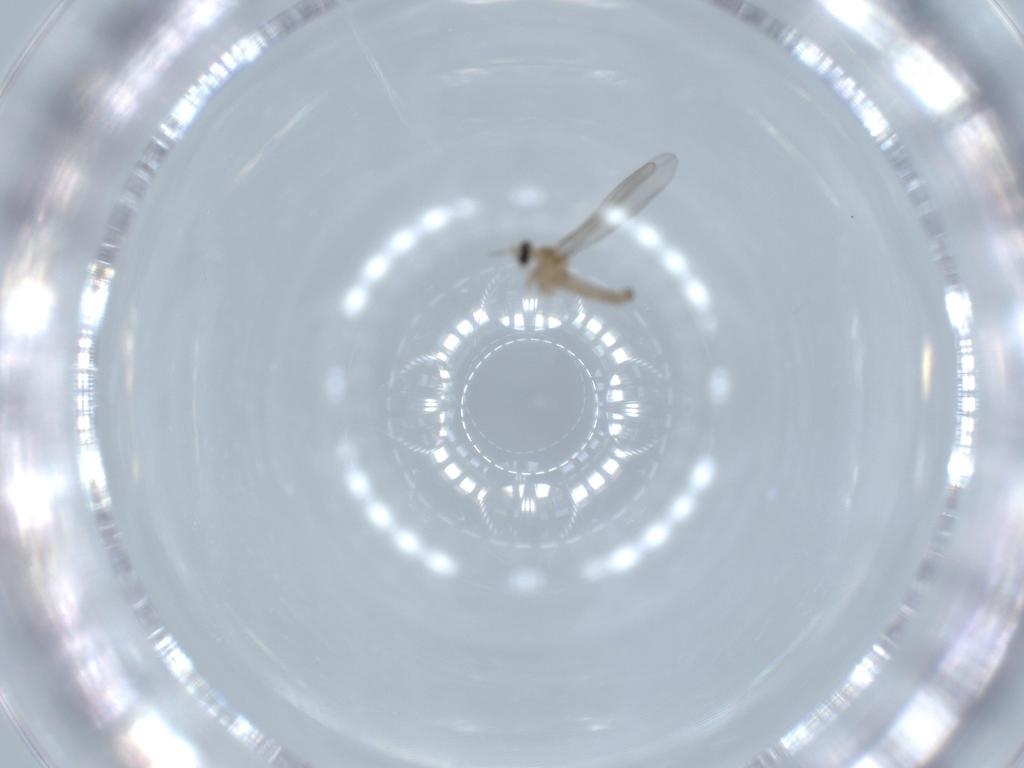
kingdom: Animalia
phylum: Arthropoda
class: Insecta
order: Diptera
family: Cecidomyiidae
